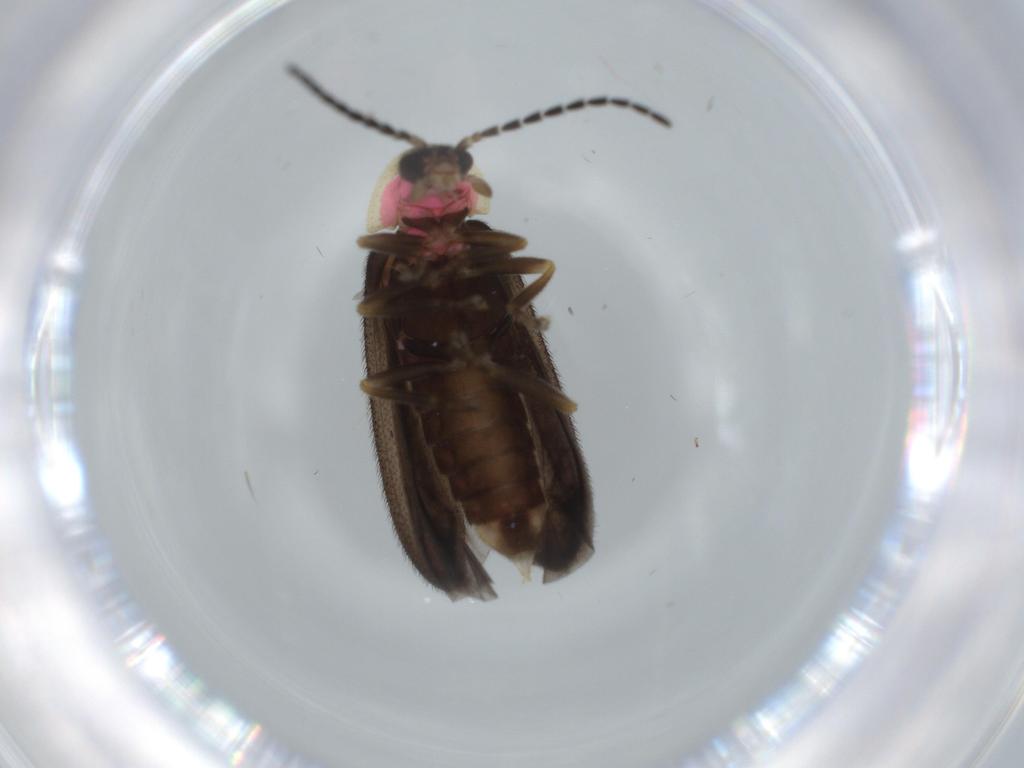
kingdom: Animalia
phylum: Arthropoda
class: Insecta
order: Coleoptera
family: Lampyridae
